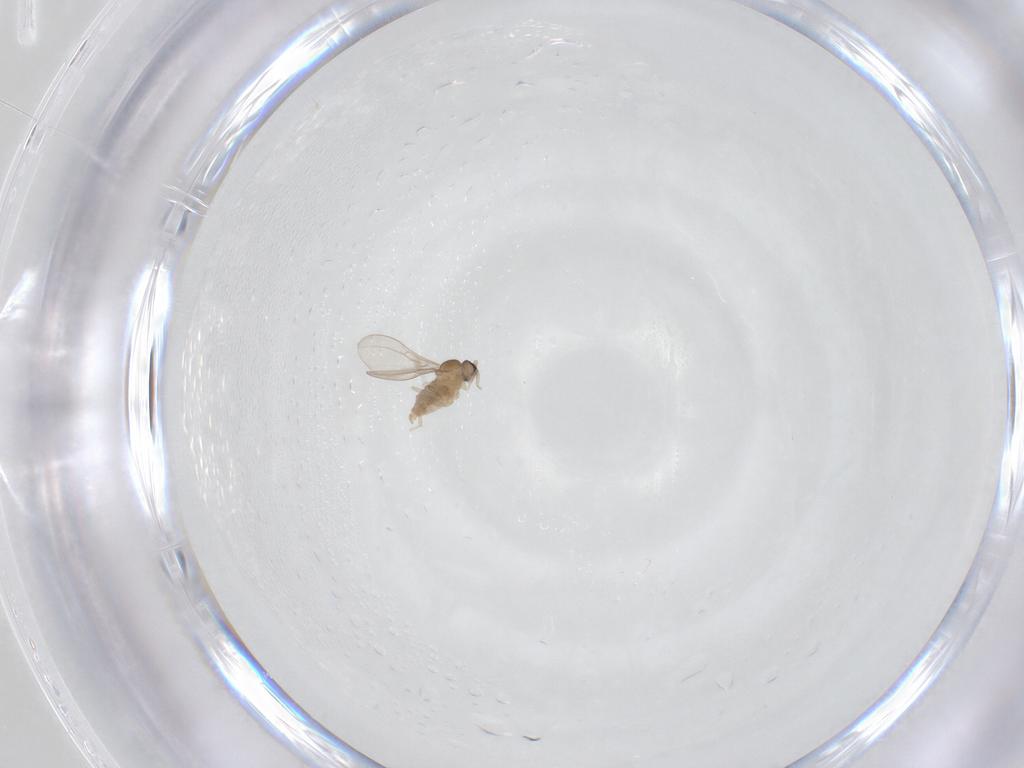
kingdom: Animalia
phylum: Arthropoda
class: Insecta
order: Diptera
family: Cecidomyiidae
